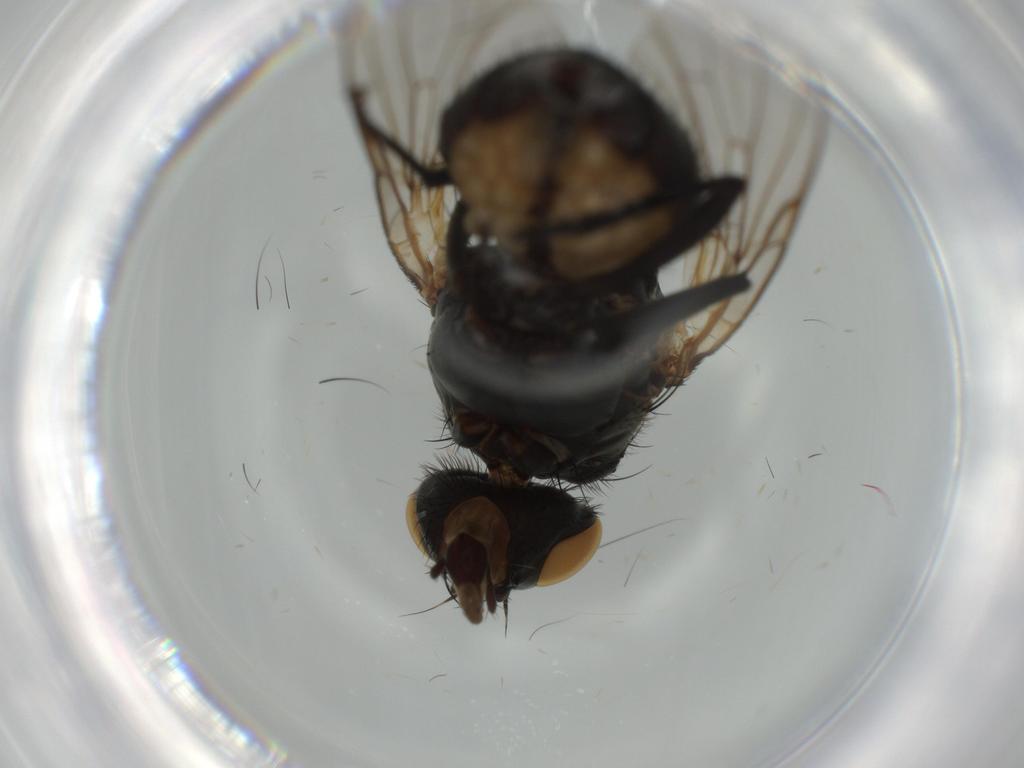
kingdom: Animalia
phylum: Arthropoda
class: Insecta
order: Diptera
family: Anthomyiidae
